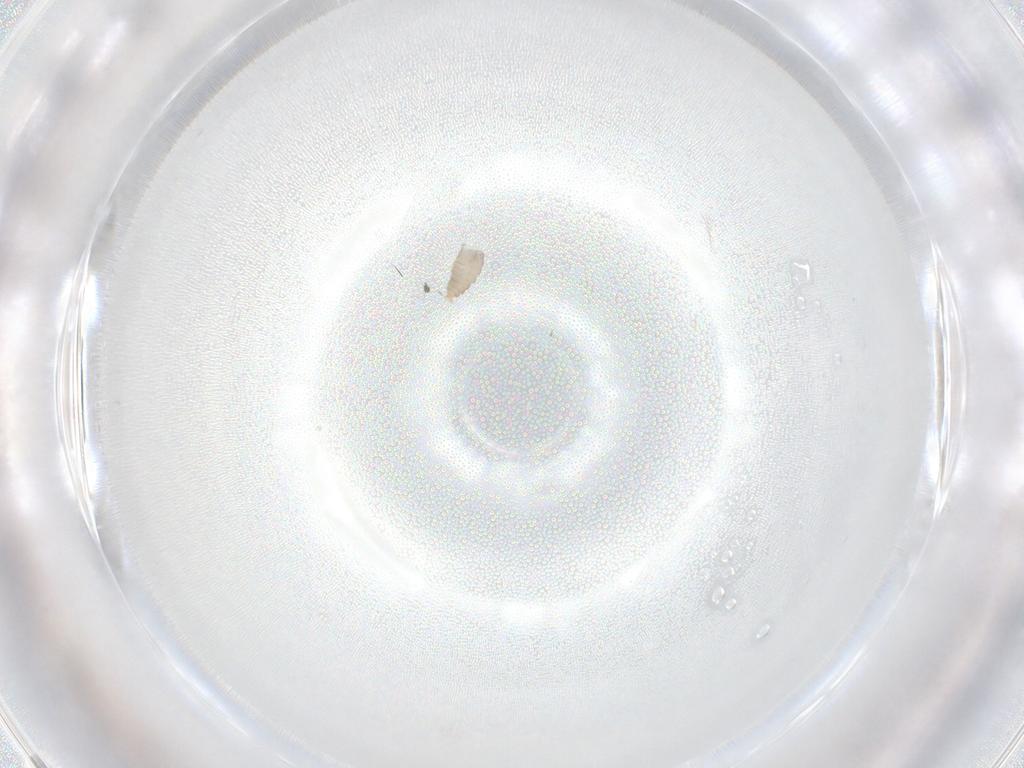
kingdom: Animalia
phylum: Arthropoda
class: Insecta
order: Diptera
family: Muscidae
